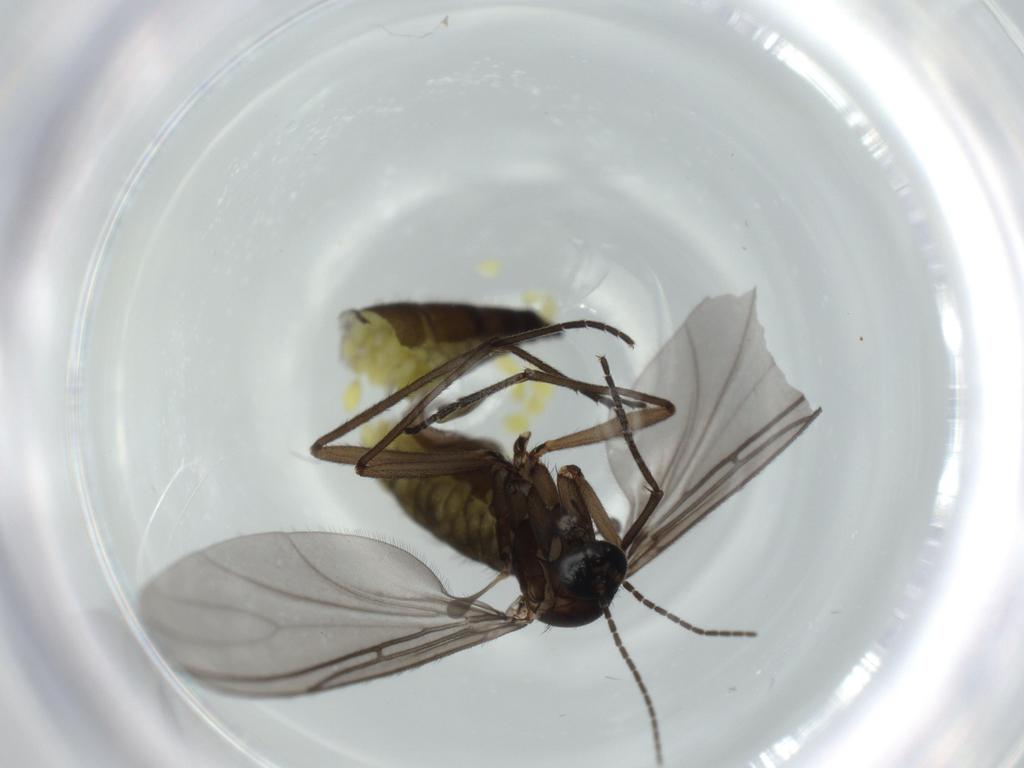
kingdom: Animalia
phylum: Arthropoda
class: Insecta
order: Diptera
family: Sciaridae
